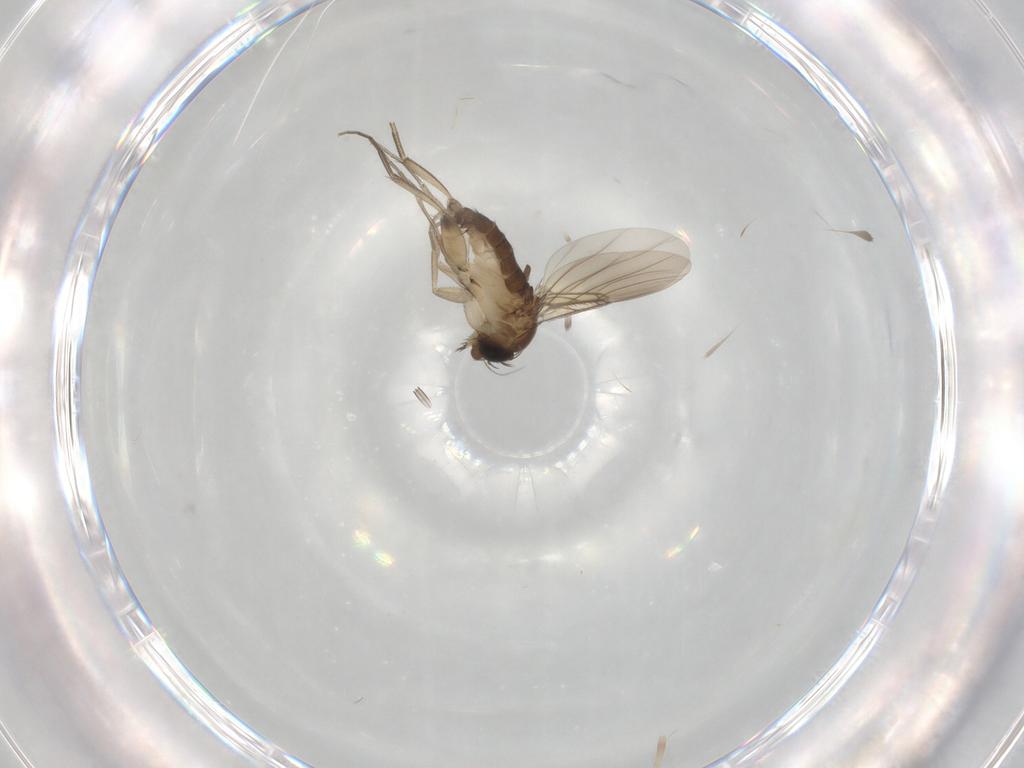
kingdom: Animalia
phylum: Arthropoda
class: Insecta
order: Diptera
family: Phoridae
